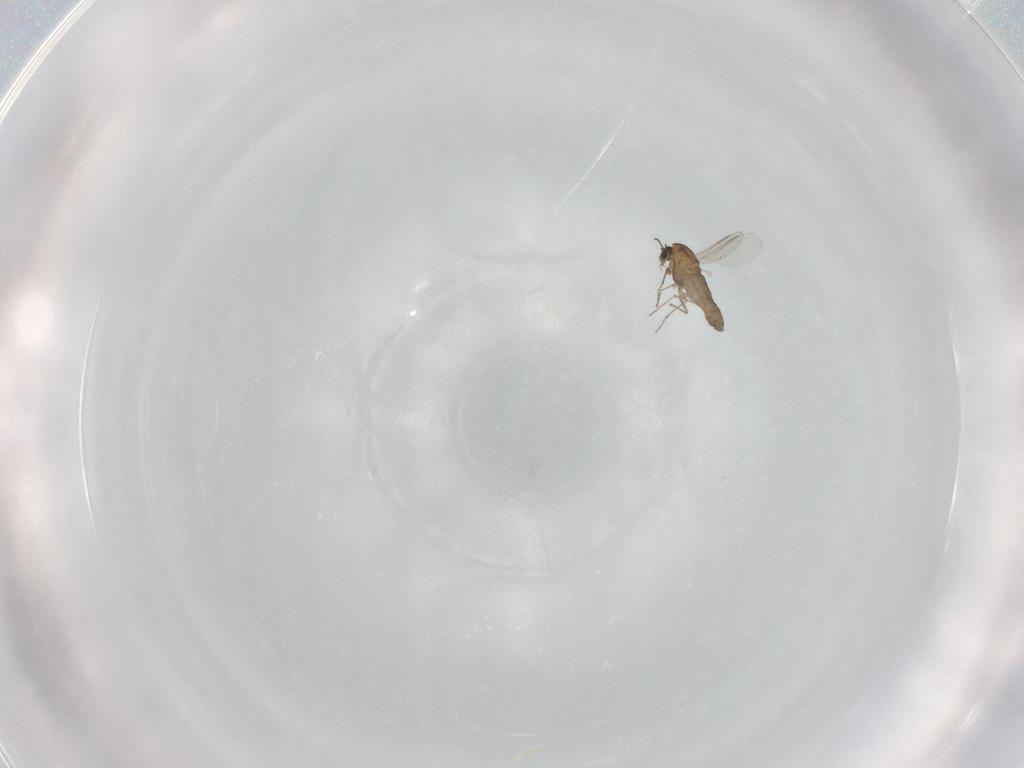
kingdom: Animalia
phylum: Arthropoda
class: Insecta
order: Diptera
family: Chironomidae
